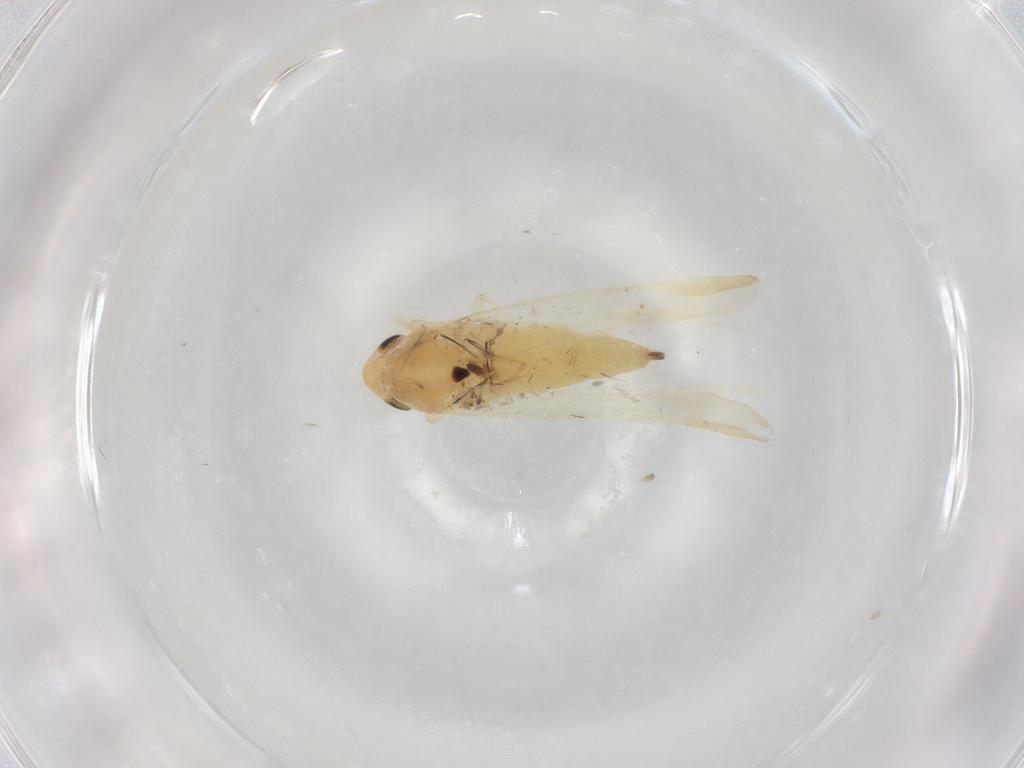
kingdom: Animalia
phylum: Arthropoda
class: Insecta
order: Hemiptera
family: Cicadellidae
